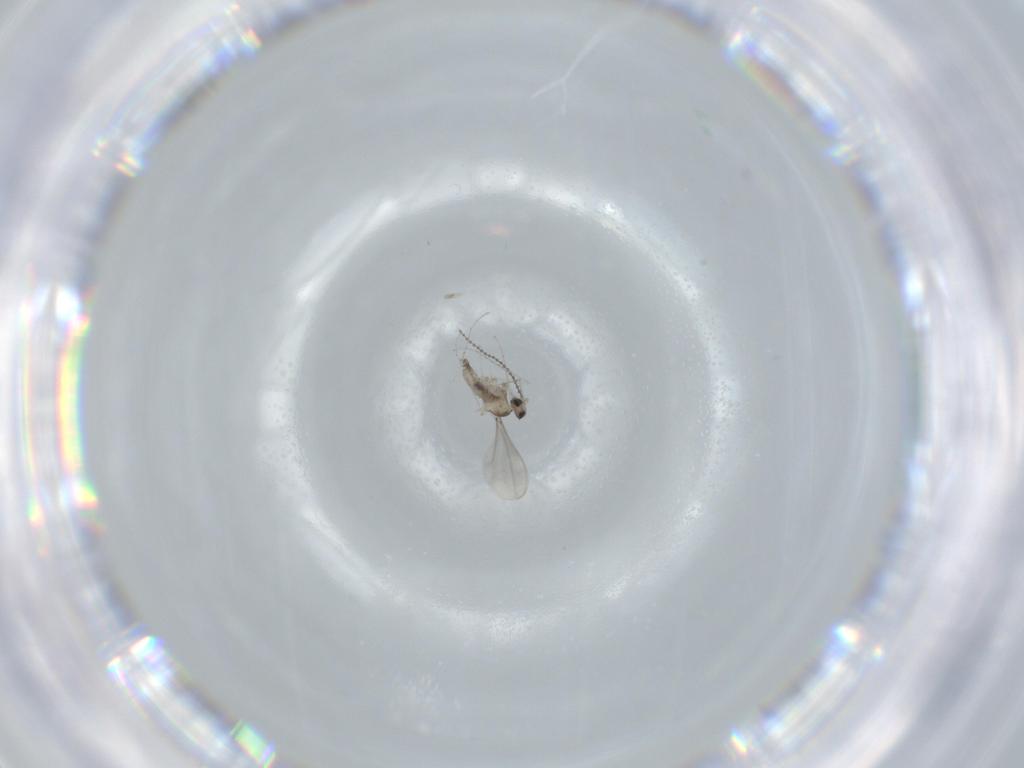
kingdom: Animalia
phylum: Arthropoda
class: Insecta
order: Diptera
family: Cecidomyiidae
